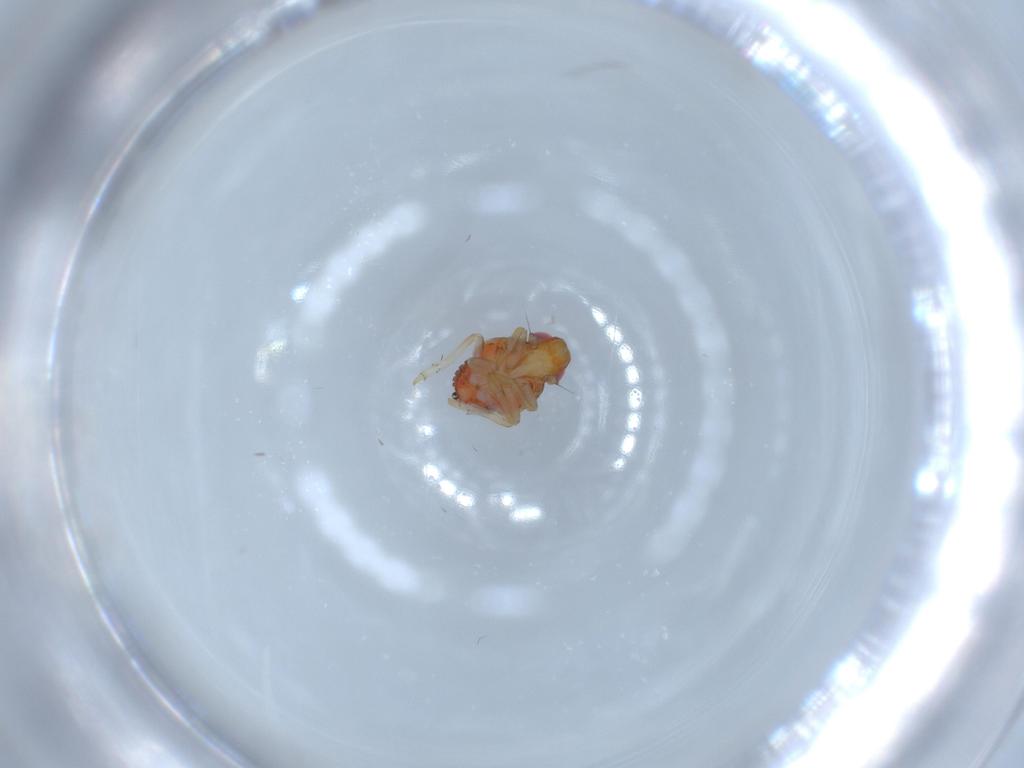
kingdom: Animalia
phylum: Arthropoda
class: Insecta
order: Hemiptera
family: Issidae
